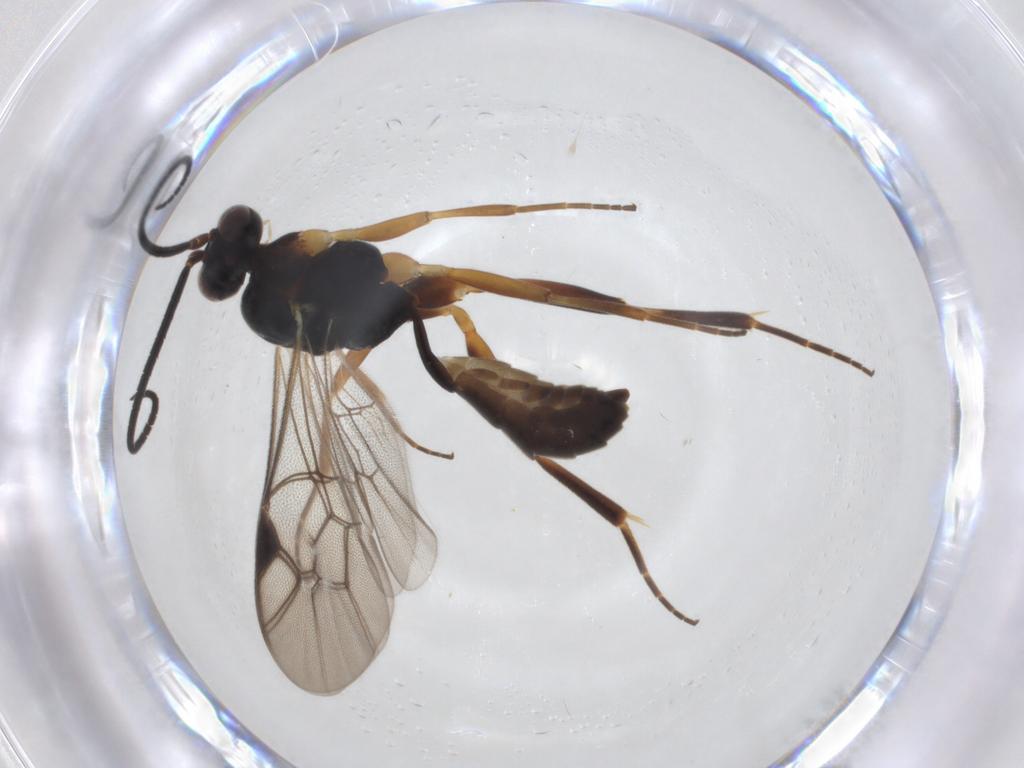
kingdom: Animalia
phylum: Arthropoda
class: Insecta
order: Hymenoptera
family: Ichneumonidae
